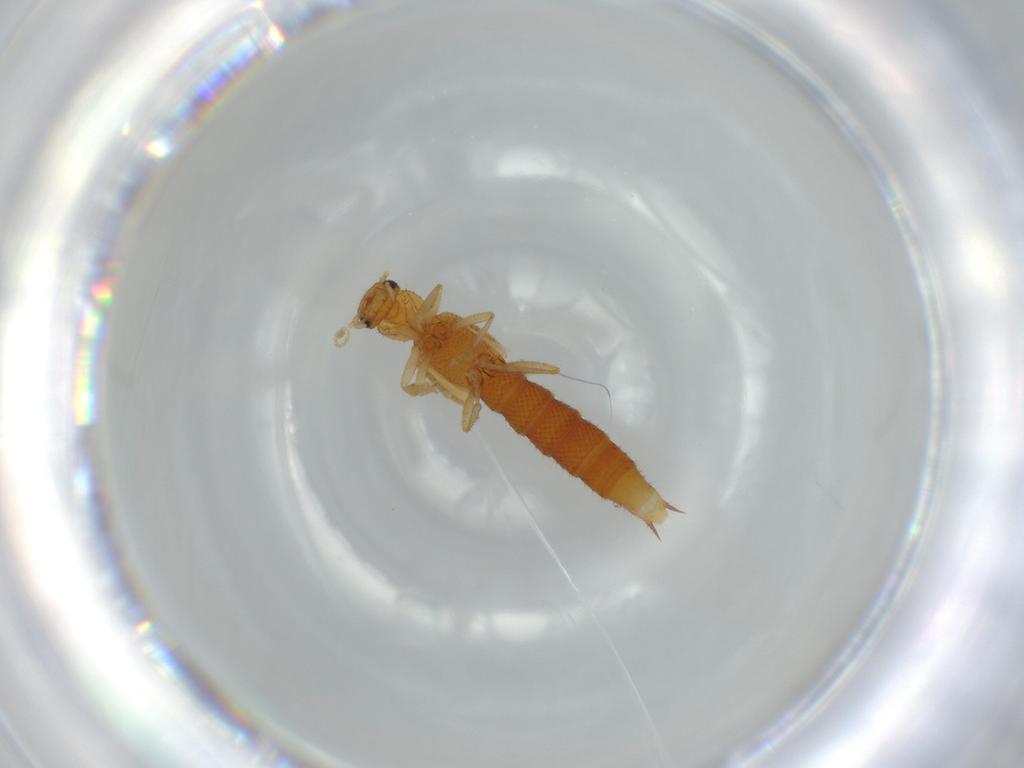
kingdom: Animalia
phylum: Arthropoda
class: Insecta
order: Coleoptera
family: Staphylinidae
